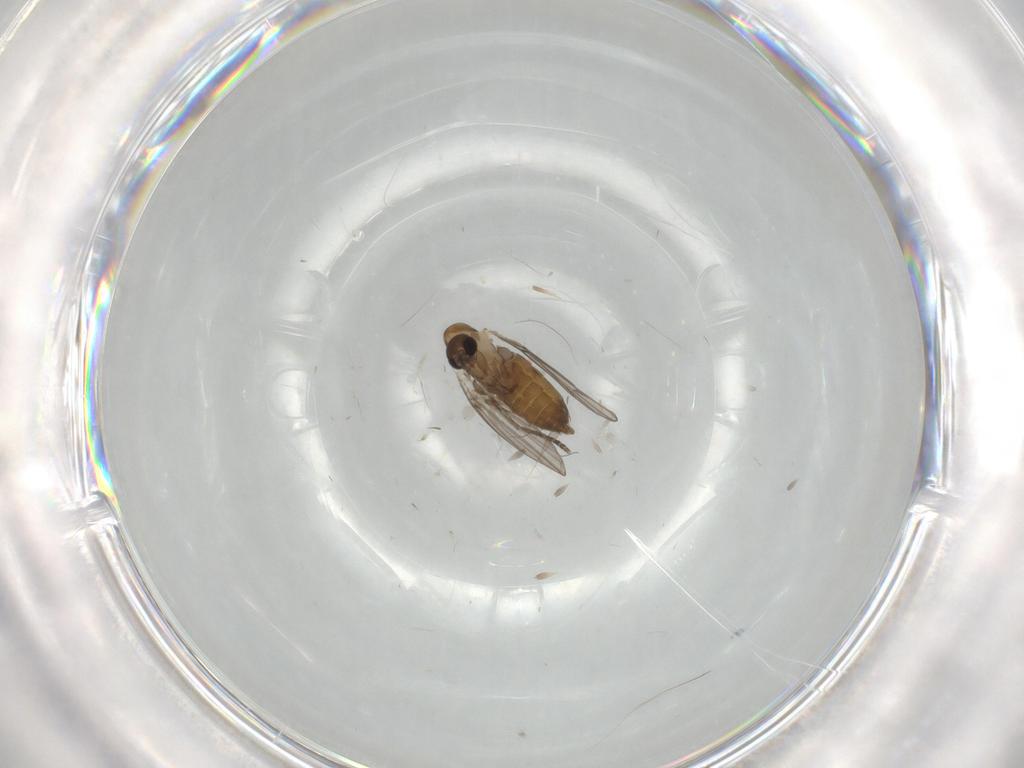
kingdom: Animalia
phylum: Arthropoda
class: Insecta
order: Diptera
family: Psychodidae
